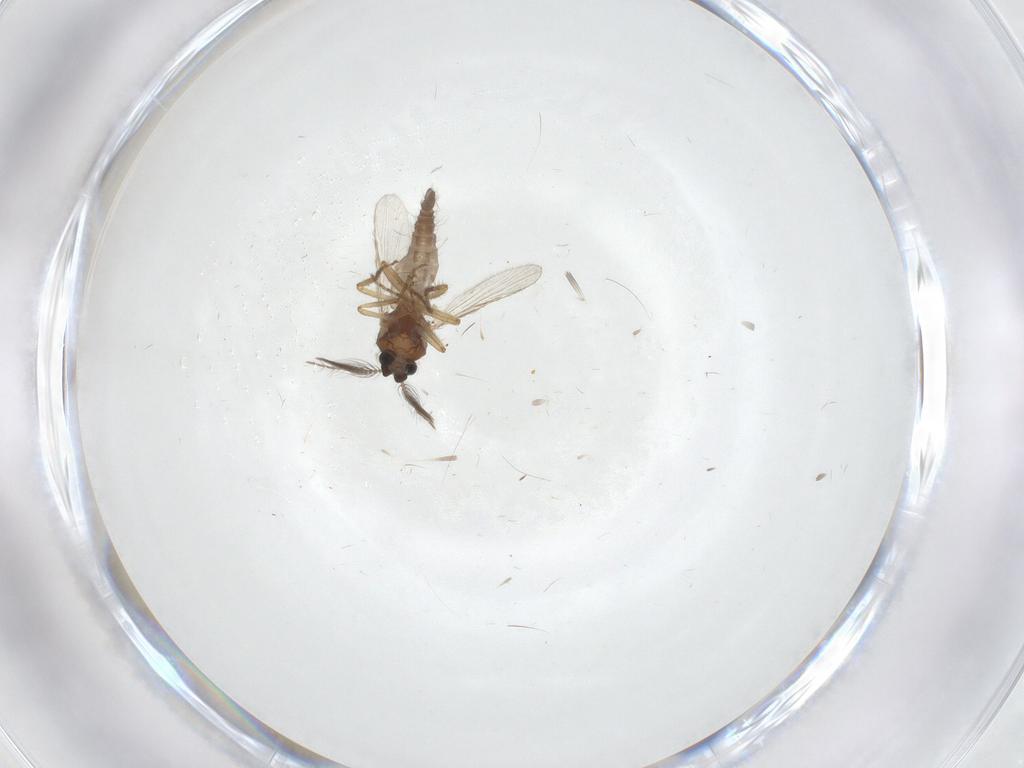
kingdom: Animalia
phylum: Arthropoda
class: Insecta
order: Diptera
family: Ceratopogonidae
